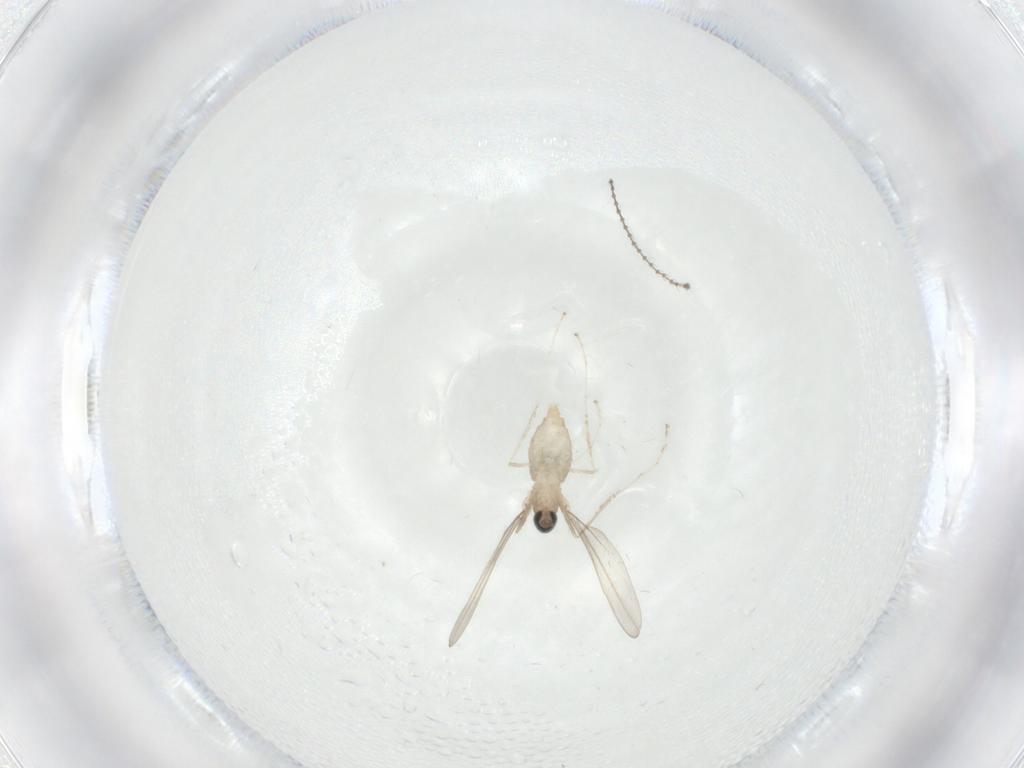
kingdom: Animalia
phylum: Arthropoda
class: Insecta
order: Diptera
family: Cecidomyiidae
